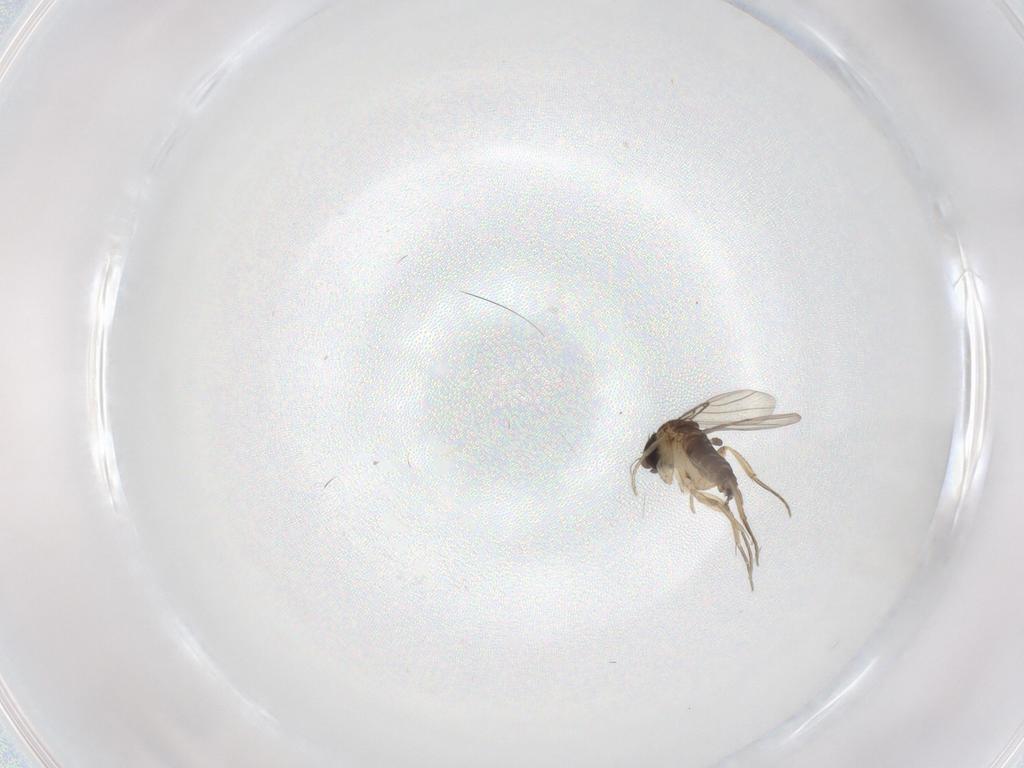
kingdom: Animalia
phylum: Arthropoda
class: Insecta
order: Diptera
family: Phoridae
